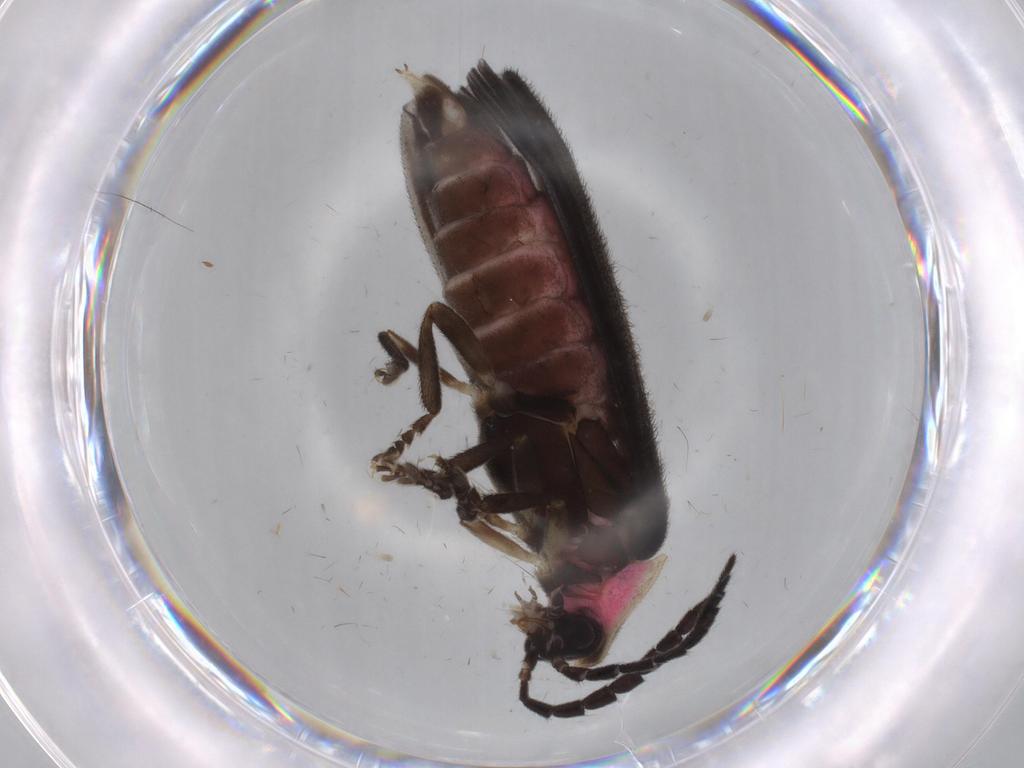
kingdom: Animalia
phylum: Arthropoda
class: Insecta
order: Coleoptera
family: Lampyridae
